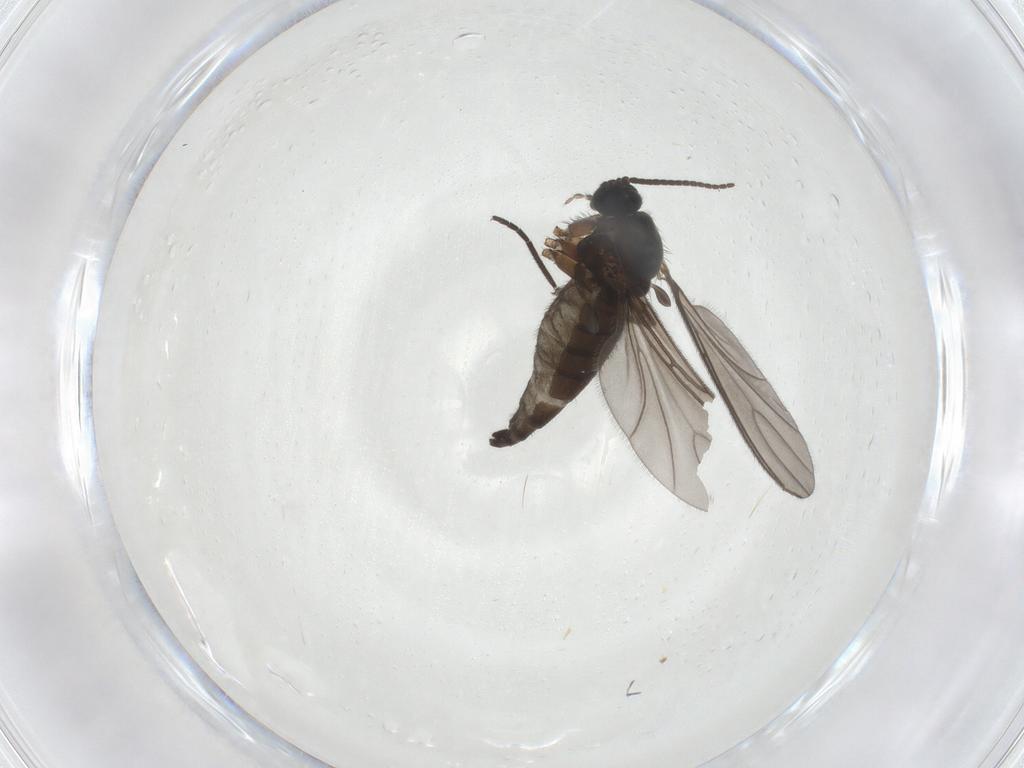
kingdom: Animalia
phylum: Arthropoda
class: Insecta
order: Diptera
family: Sciaridae
